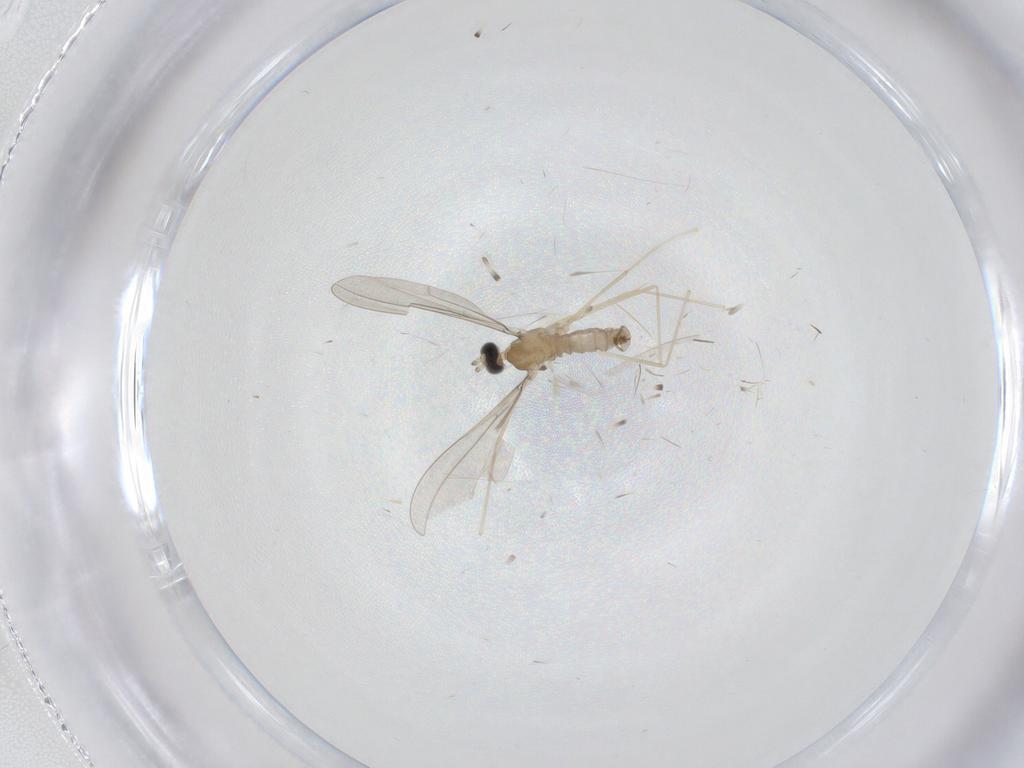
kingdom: Animalia
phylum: Arthropoda
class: Insecta
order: Diptera
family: Cecidomyiidae
